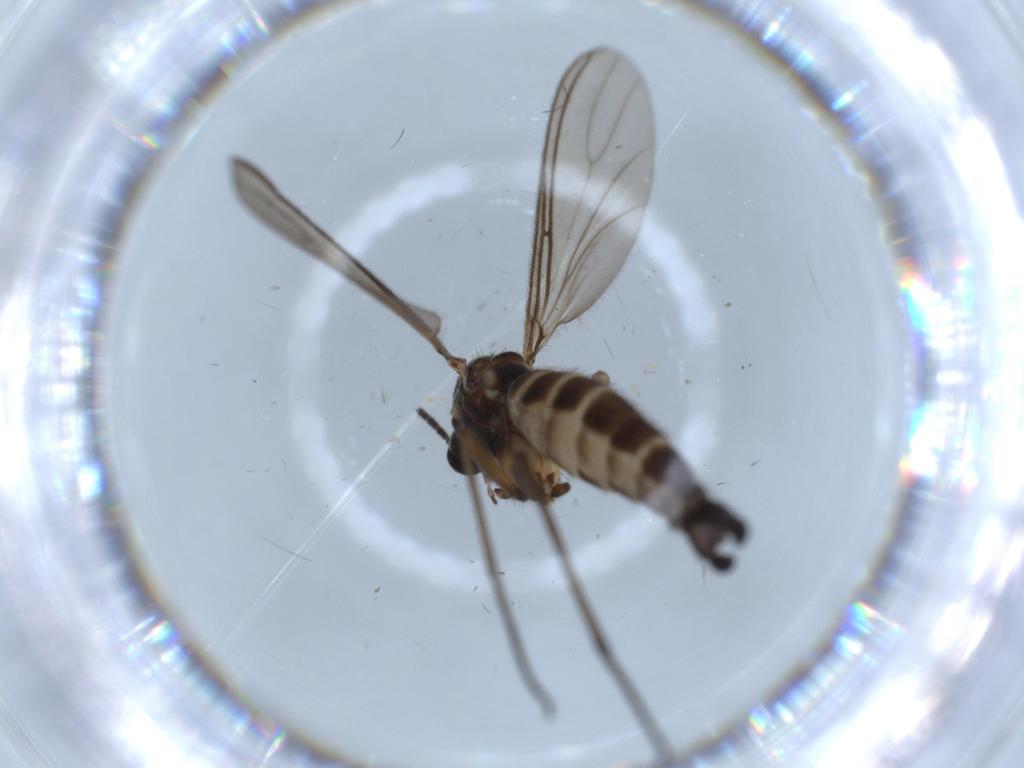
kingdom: Animalia
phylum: Arthropoda
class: Insecta
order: Diptera
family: Sciaridae
